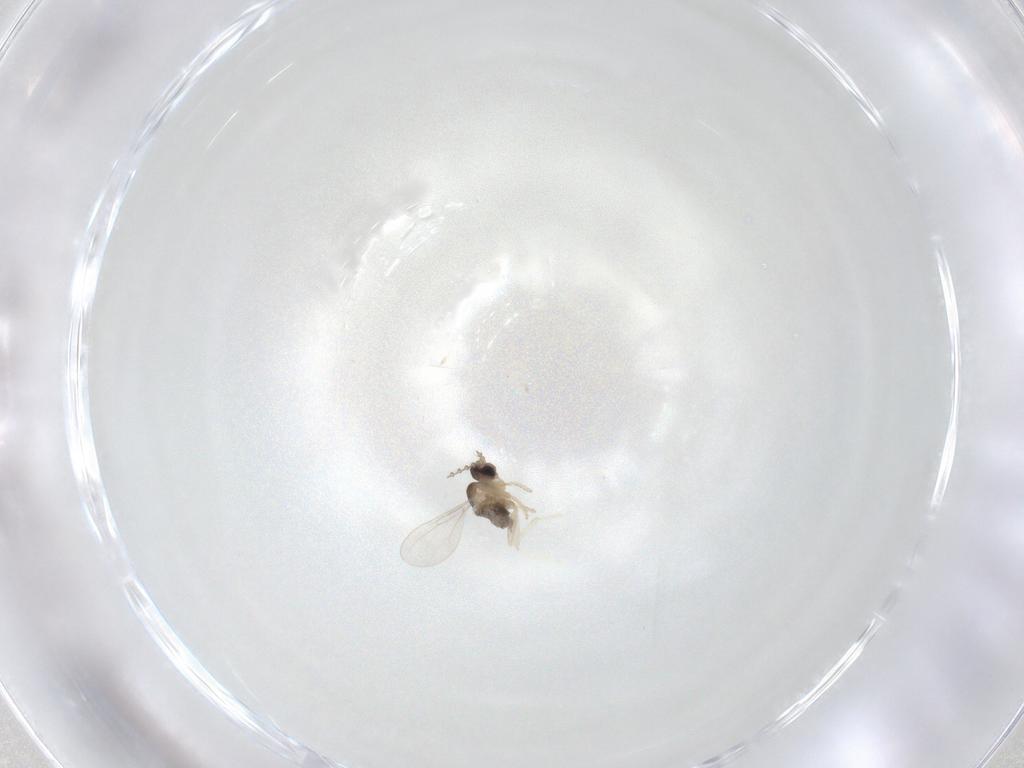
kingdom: Animalia
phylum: Arthropoda
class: Insecta
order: Diptera
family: Cecidomyiidae
